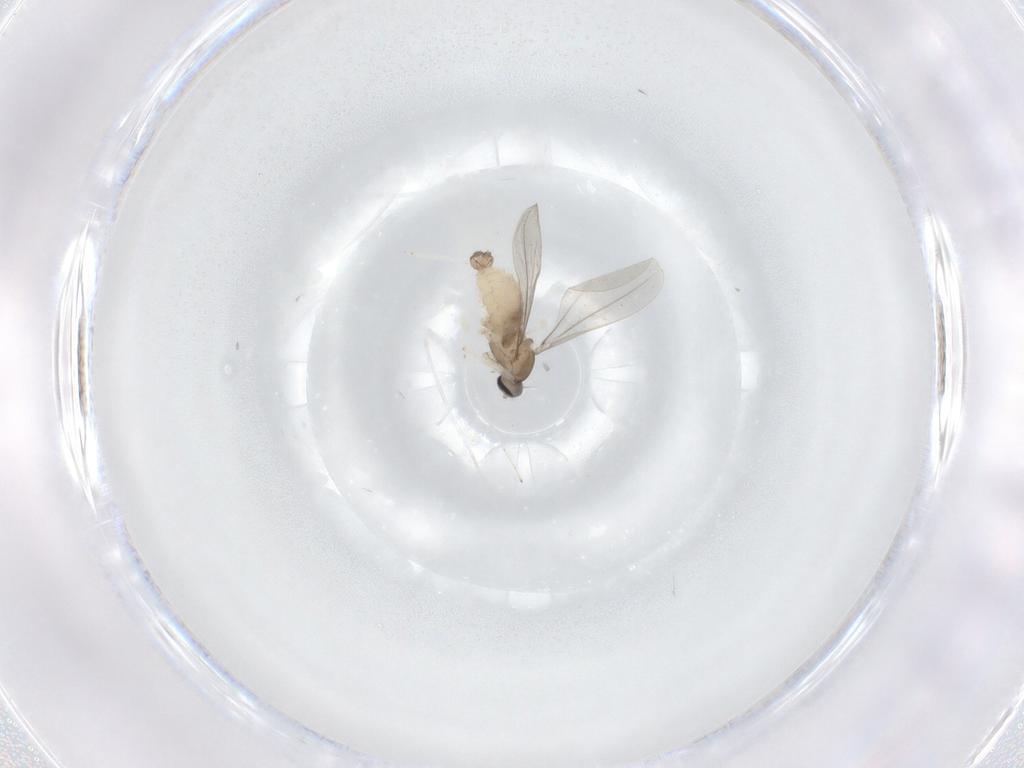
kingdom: Animalia
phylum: Arthropoda
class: Insecta
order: Diptera
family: Cecidomyiidae
